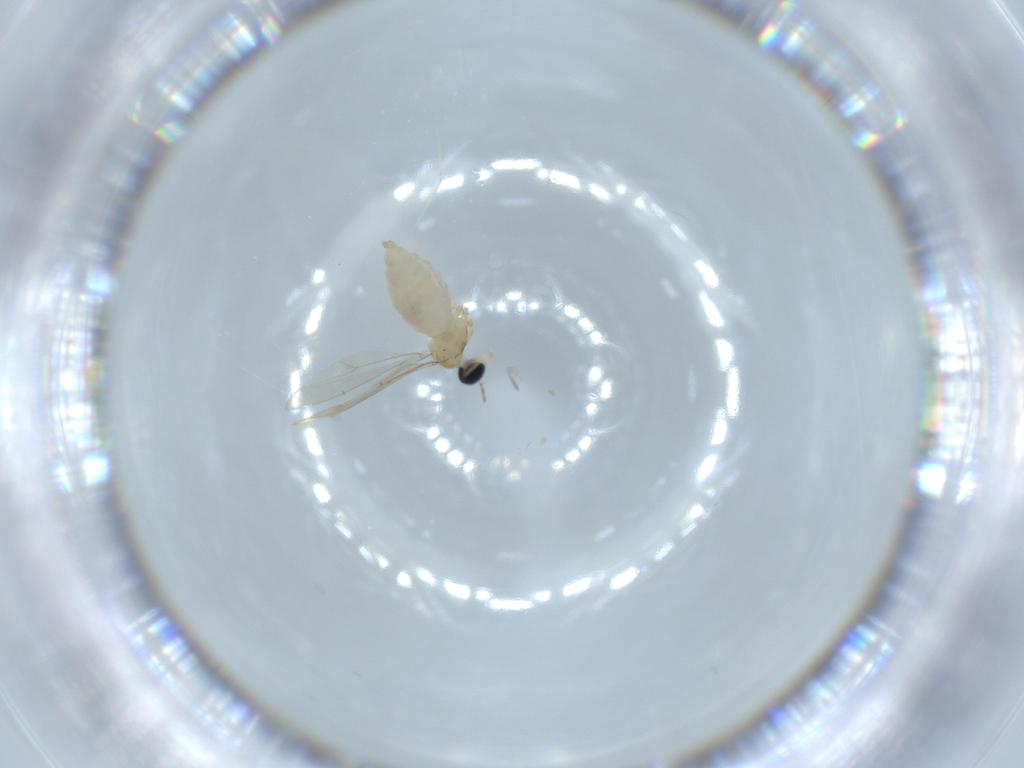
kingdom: Animalia
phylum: Arthropoda
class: Insecta
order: Diptera
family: Cecidomyiidae
